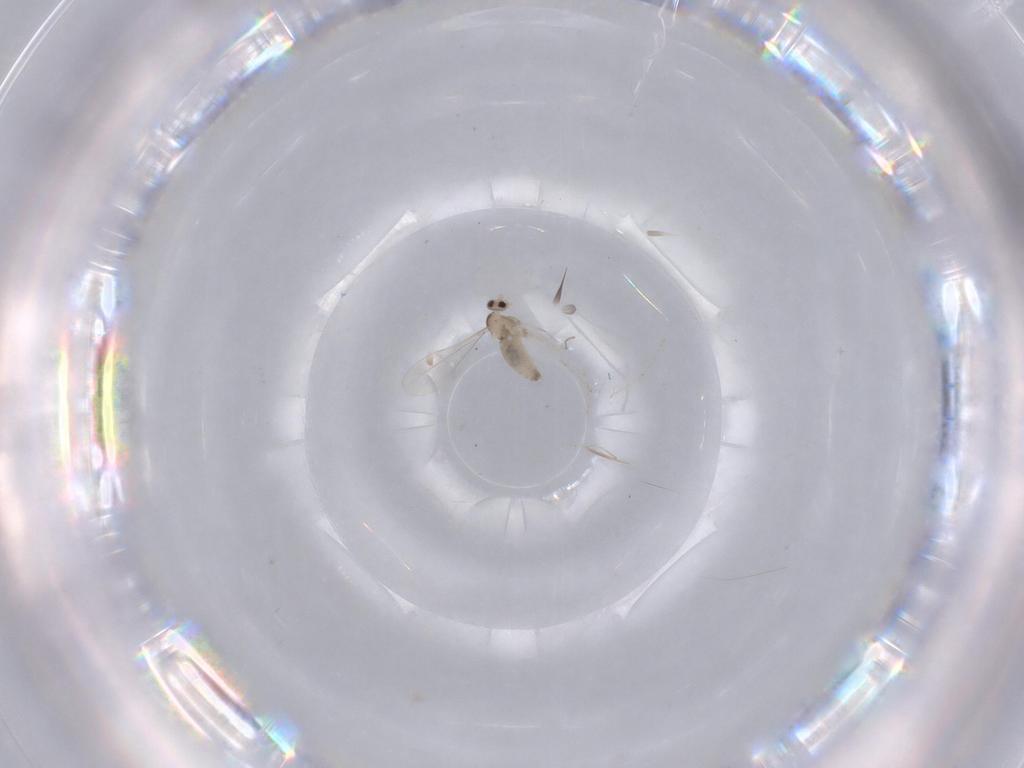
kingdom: Animalia
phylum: Arthropoda
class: Insecta
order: Diptera
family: Cecidomyiidae
